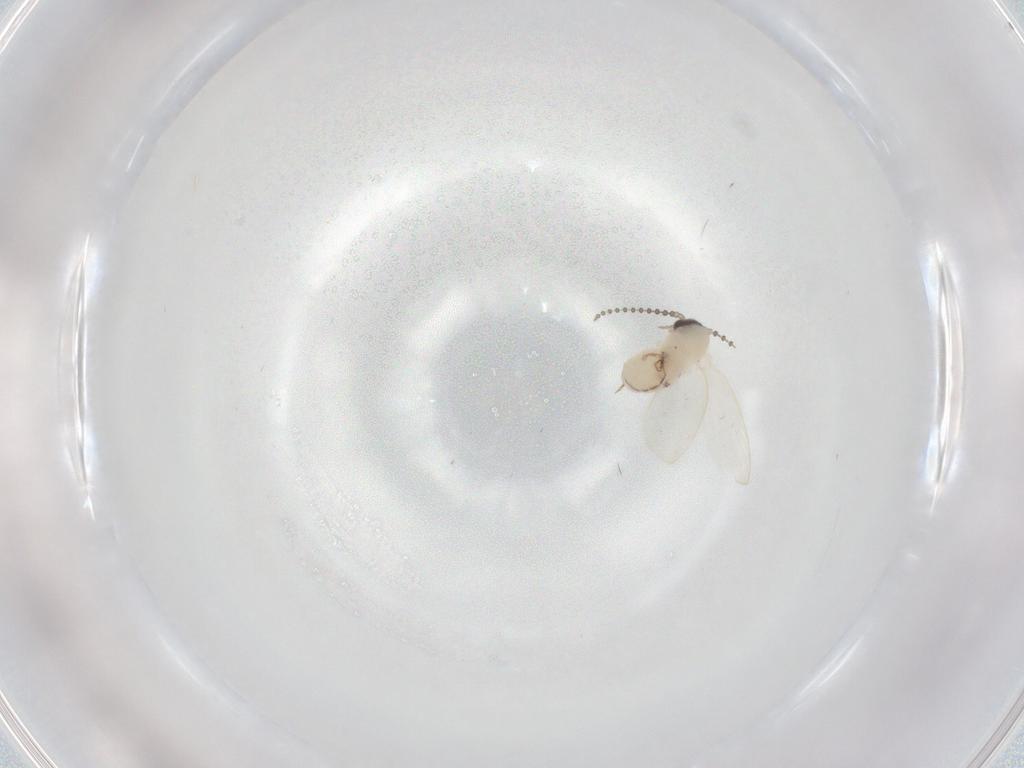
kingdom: Animalia
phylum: Arthropoda
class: Insecta
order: Diptera
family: Psychodidae
